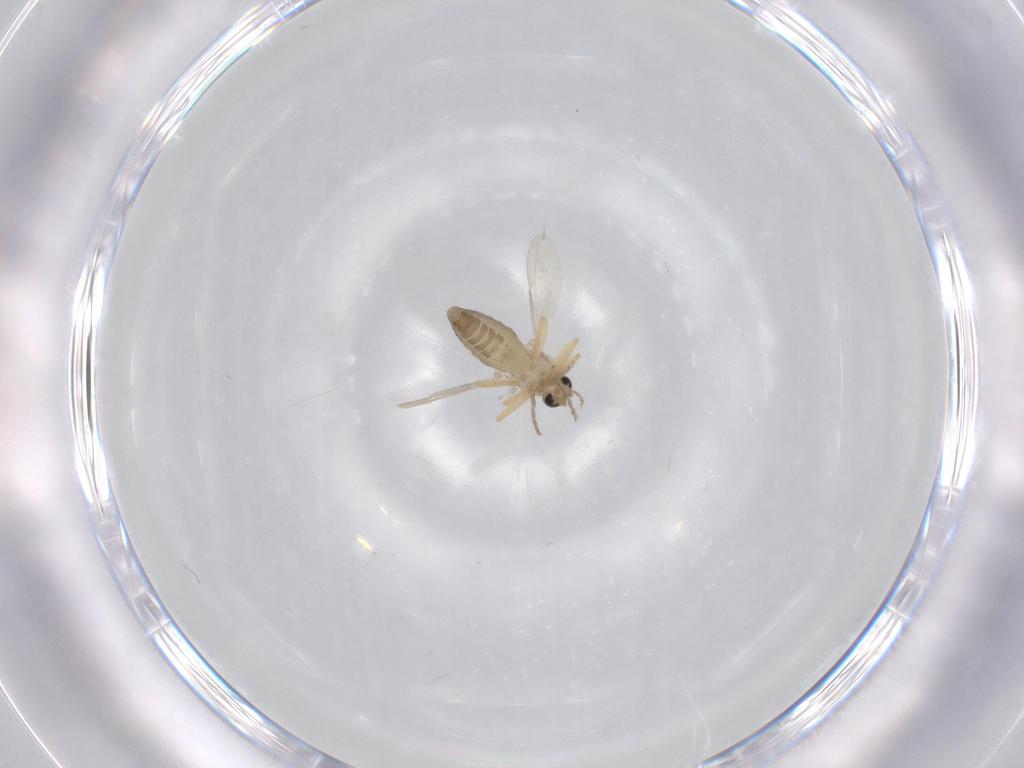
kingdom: Animalia
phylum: Arthropoda
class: Insecta
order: Diptera
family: Ceratopogonidae
